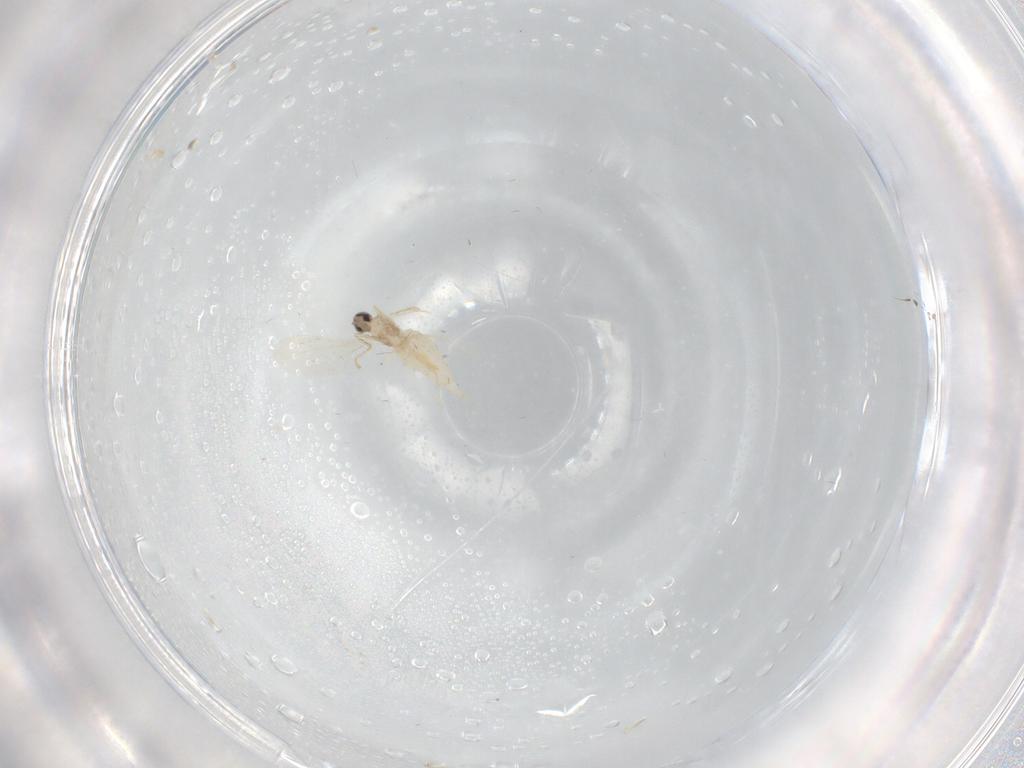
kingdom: Animalia
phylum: Arthropoda
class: Insecta
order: Diptera
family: Cecidomyiidae
